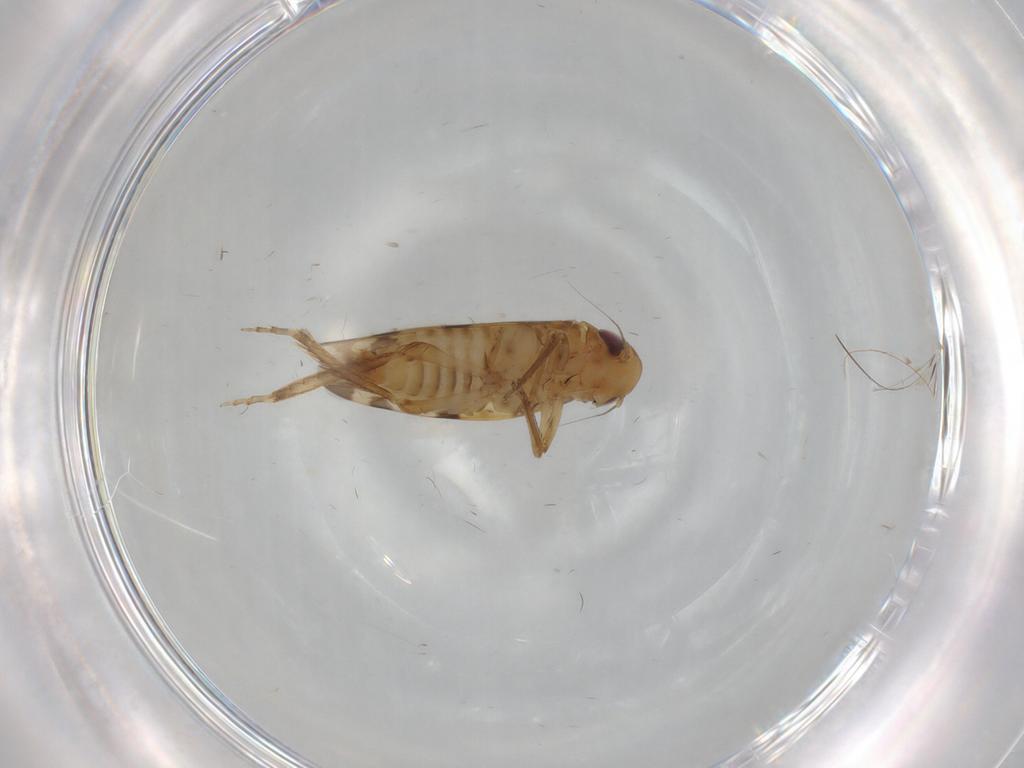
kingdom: Animalia
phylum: Arthropoda
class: Insecta
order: Hemiptera
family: Cicadellidae
